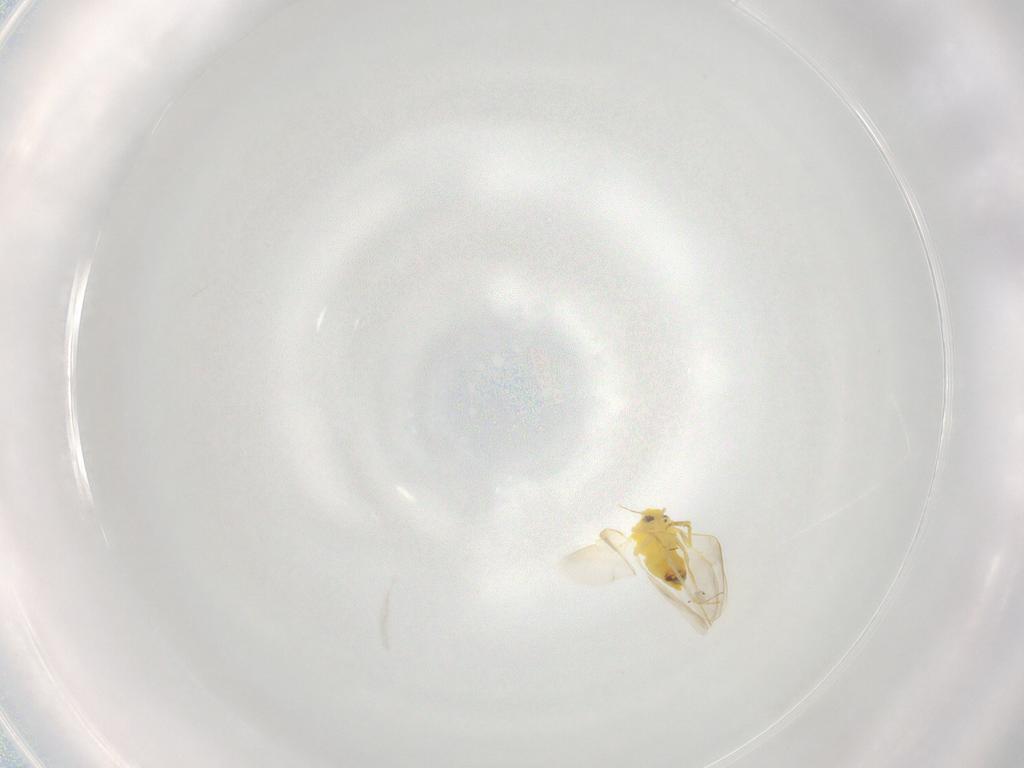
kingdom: Animalia
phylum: Arthropoda
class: Insecta
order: Hemiptera
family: Aleyrodidae
